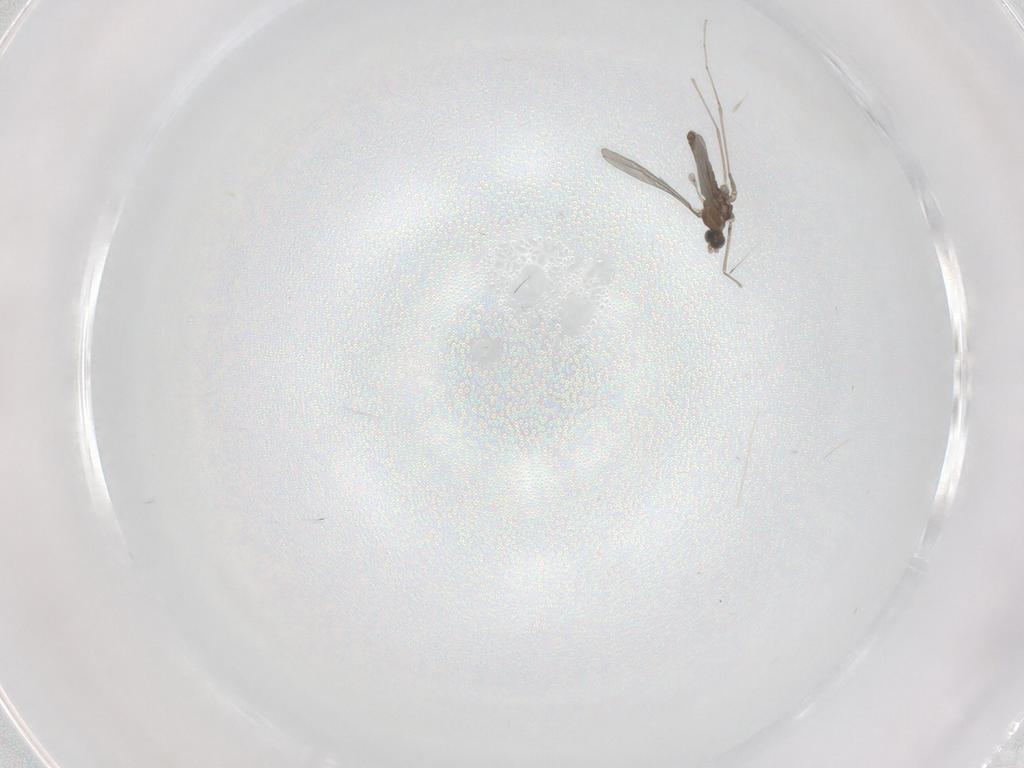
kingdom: Animalia
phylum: Arthropoda
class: Insecta
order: Diptera
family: Cecidomyiidae
